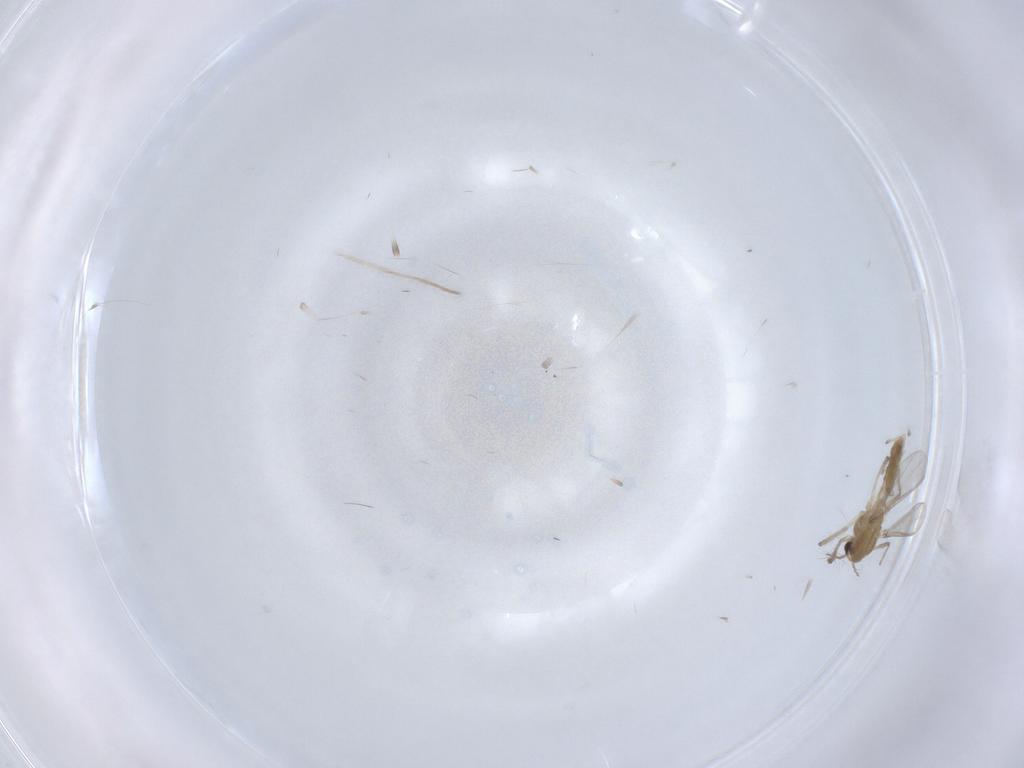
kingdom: Animalia
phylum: Arthropoda
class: Insecta
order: Diptera
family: Chironomidae
